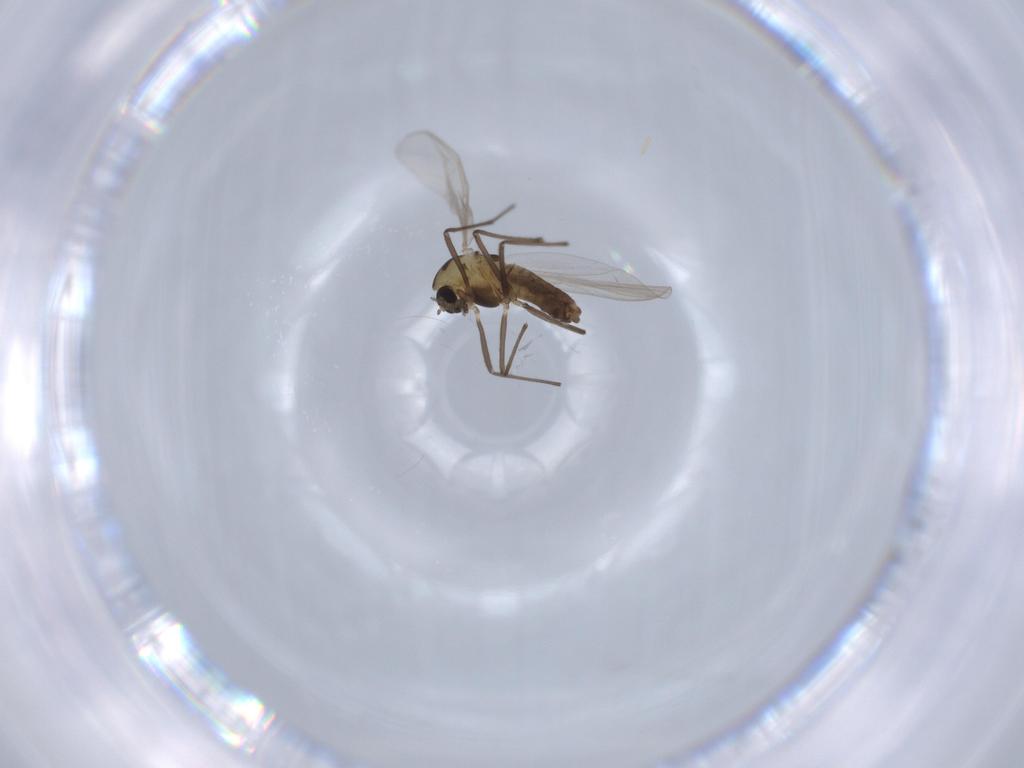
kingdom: Animalia
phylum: Arthropoda
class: Insecta
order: Diptera
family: Chironomidae
